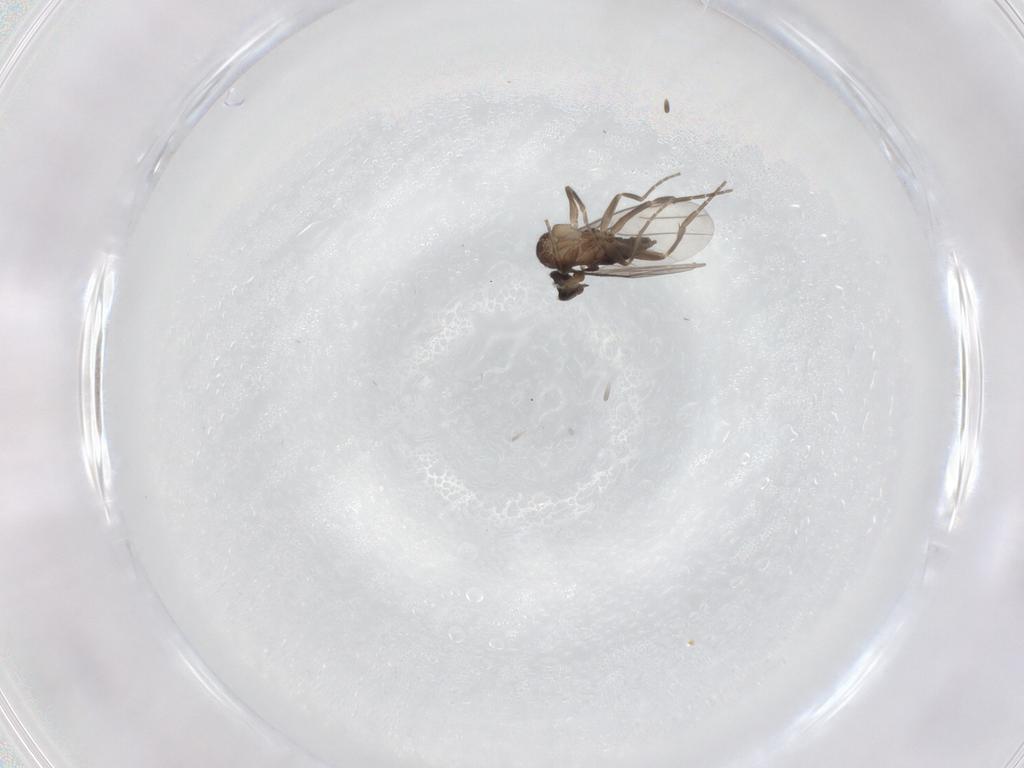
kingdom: Animalia
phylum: Arthropoda
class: Insecta
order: Diptera
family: Phoridae
